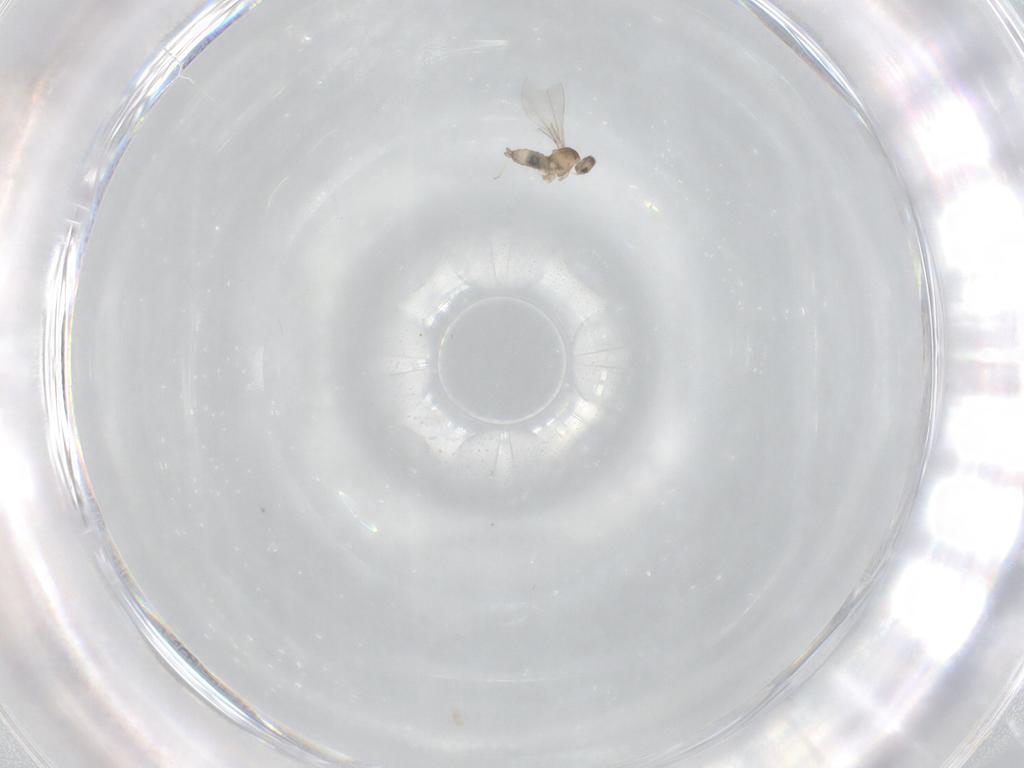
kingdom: Animalia
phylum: Arthropoda
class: Insecta
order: Diptera
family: Cecidomyiidae
